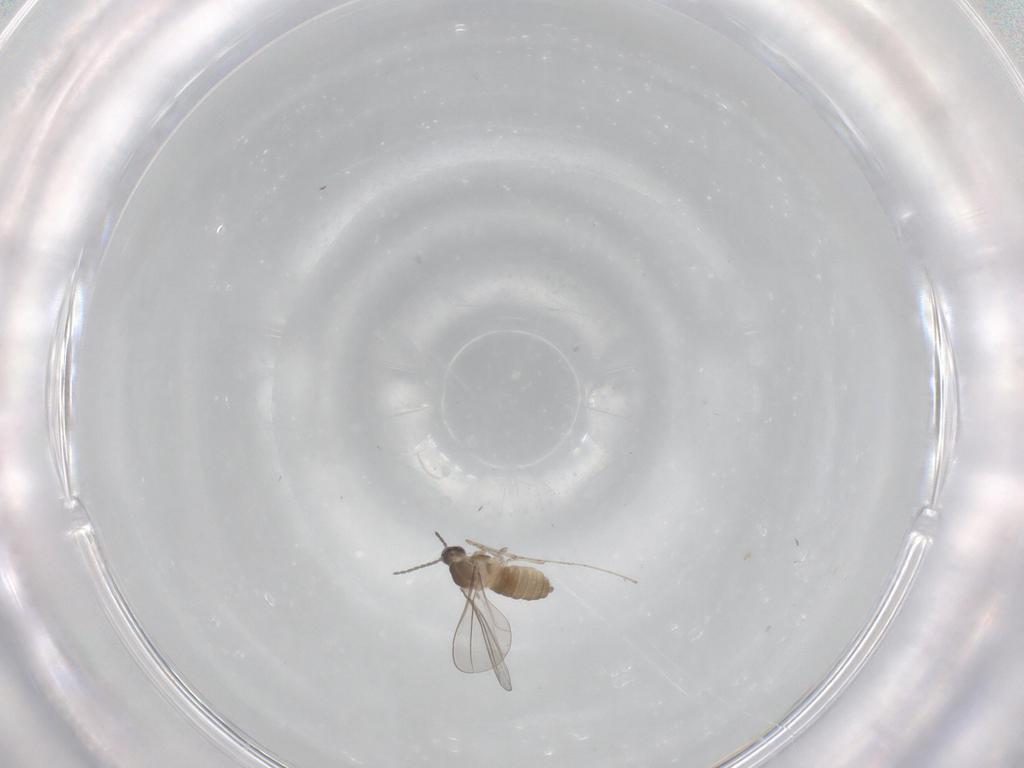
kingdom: Animalia
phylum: Arthropoda
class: Insecta
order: Diptera
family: Cecidomyiidae
